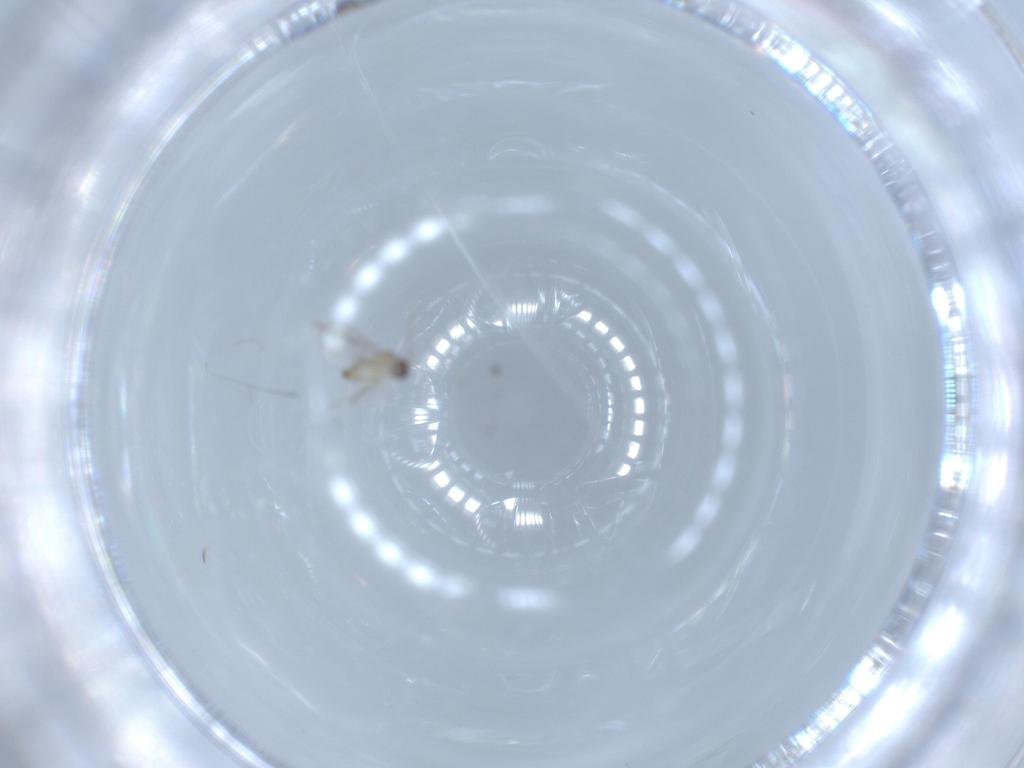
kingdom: Animalia
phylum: Arthropoda
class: Insecta
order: Diptera
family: Cecidomyiidae
